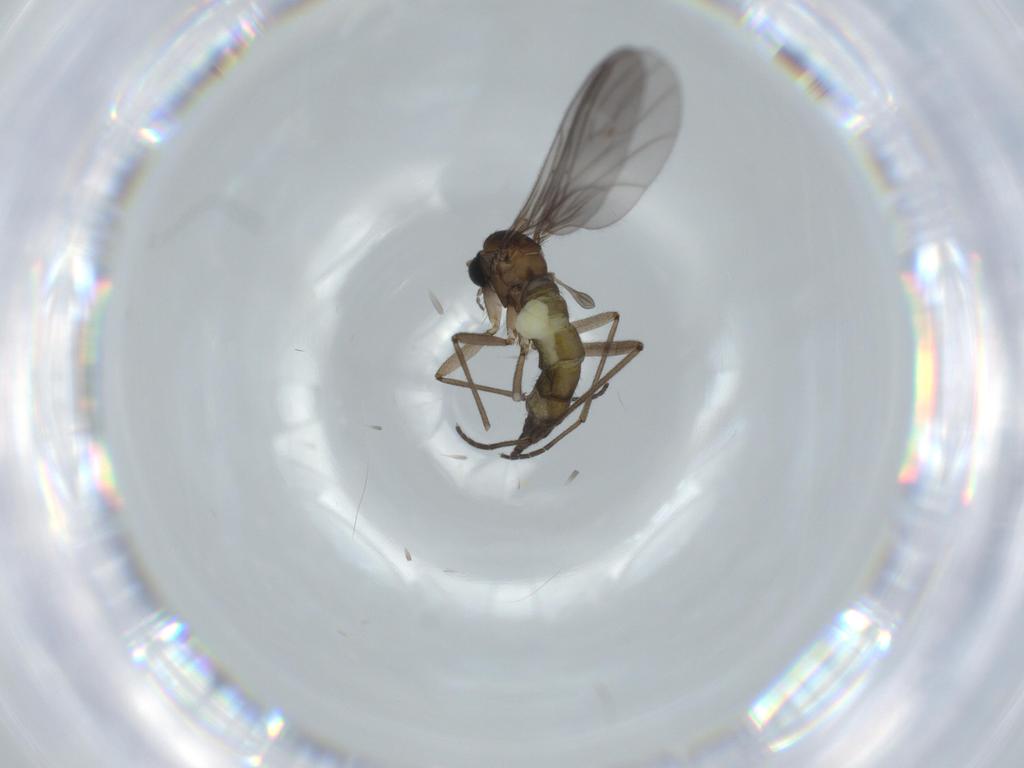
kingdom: Animalia
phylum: Arthropoda
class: Insecta
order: Diptera
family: Sciaridae
